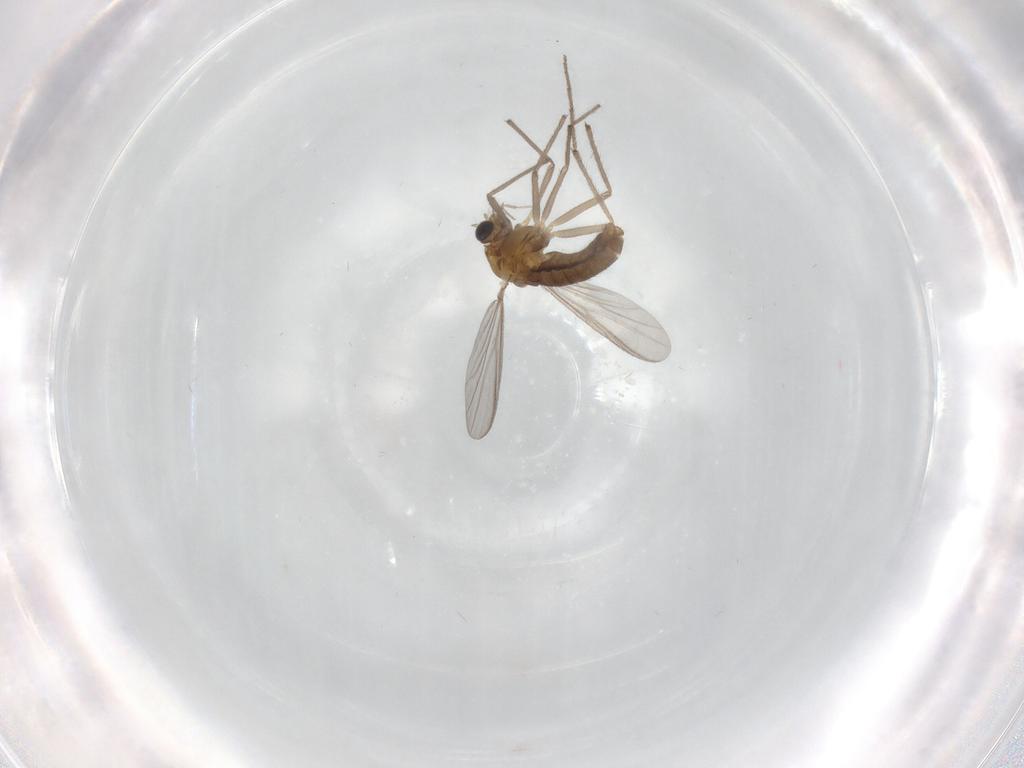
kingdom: Animalia
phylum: Arthropoda
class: Insecta
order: Diptera
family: Chironomidae
